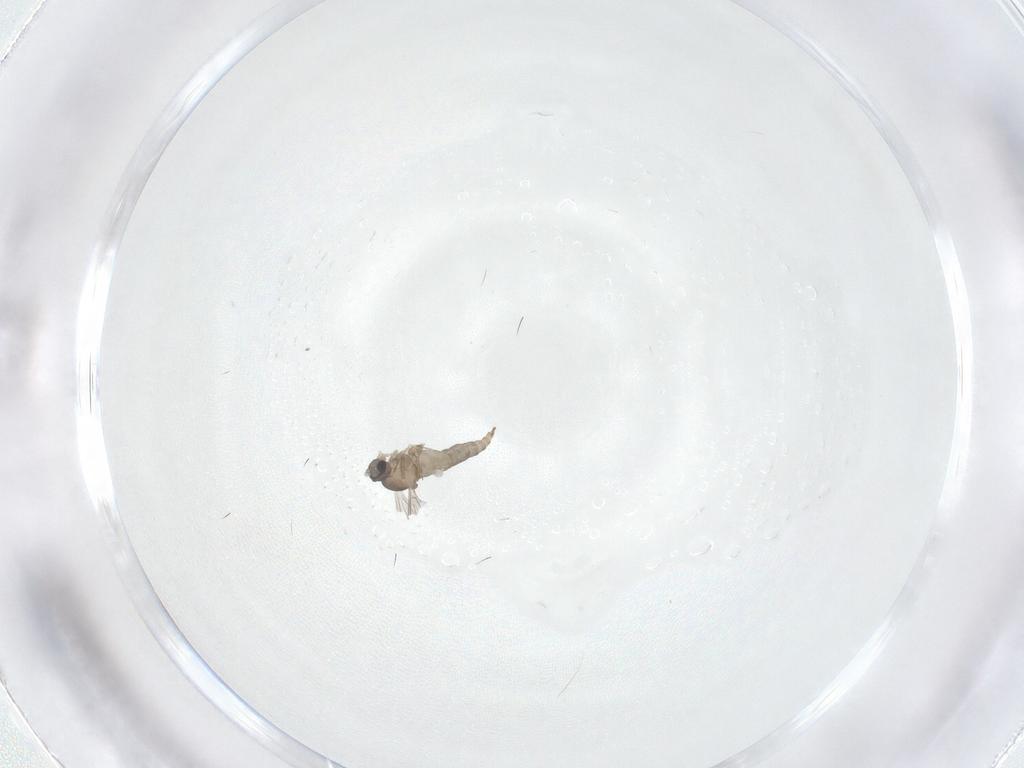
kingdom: Animalia
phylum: Arthropoda
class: Insecta
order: Diptera
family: Cecidomyiidae
